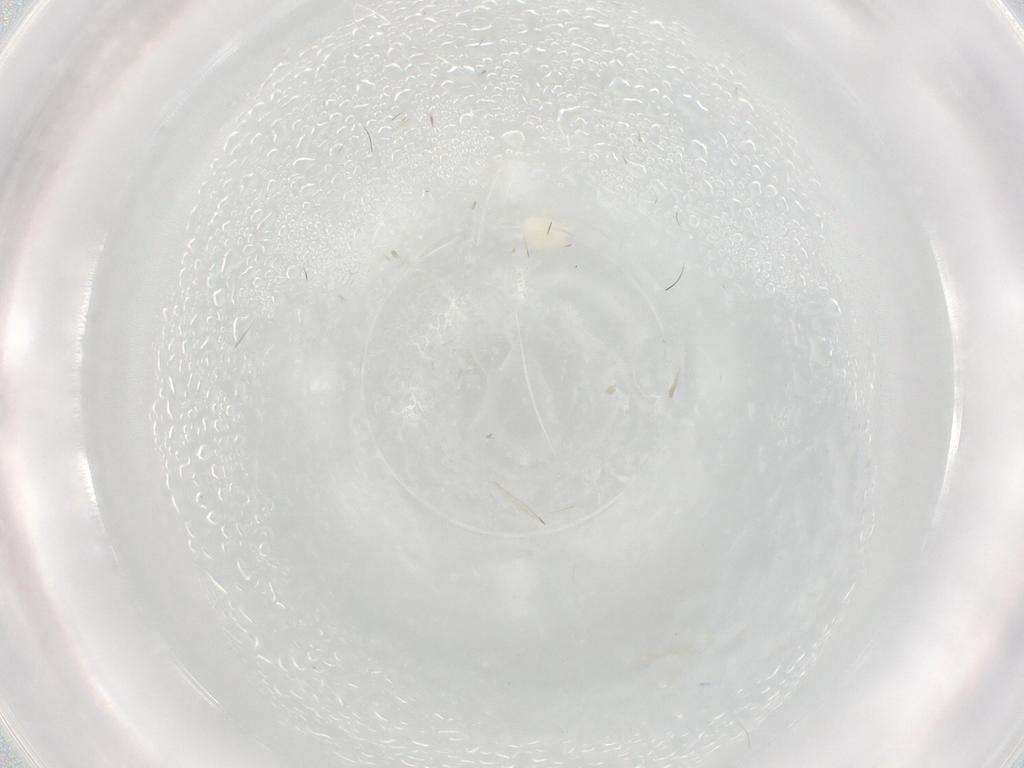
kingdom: Animalia
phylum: Arthropoda
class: Arachnida
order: Trombidiformes
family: Microtrombidiidae
